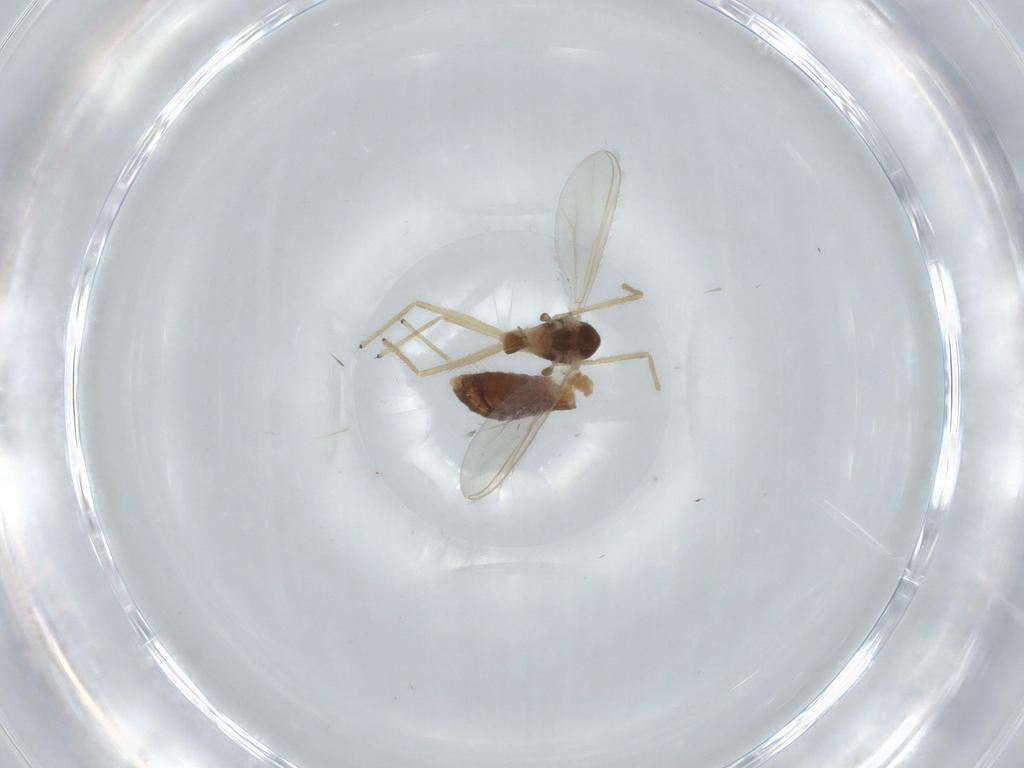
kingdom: Animalia
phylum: Arthropoda
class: Insecta
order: Diptera
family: Chironomidae
